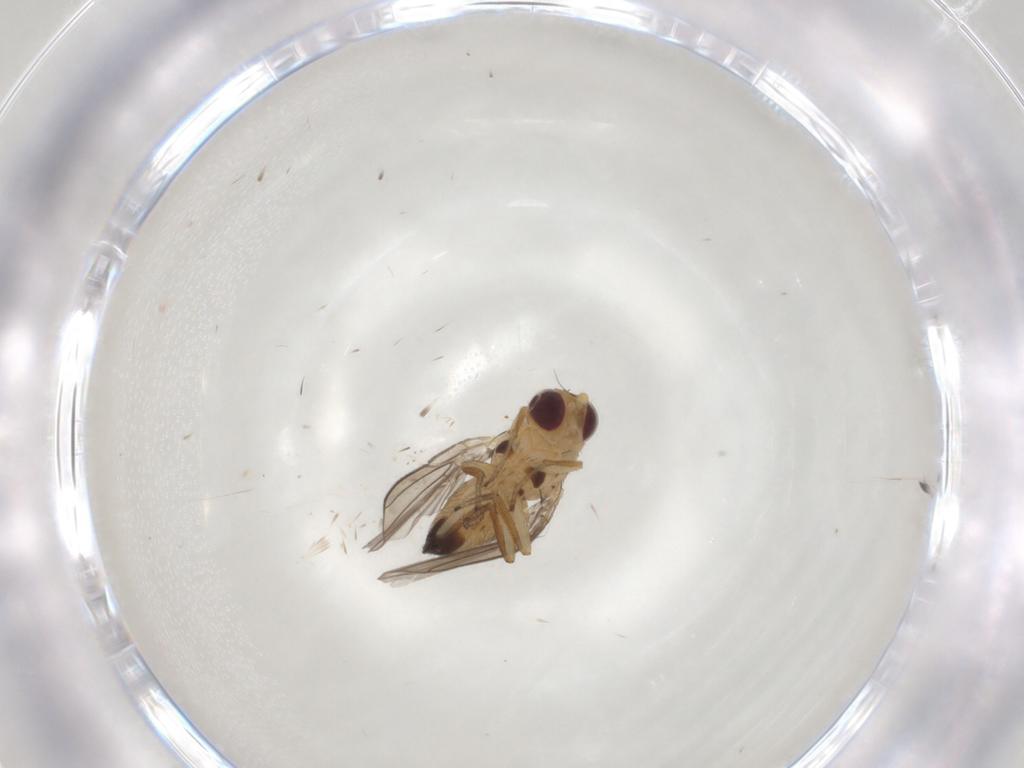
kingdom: Animalia
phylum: Arthropoda
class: Insecta
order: Diptera
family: Glossinidae
